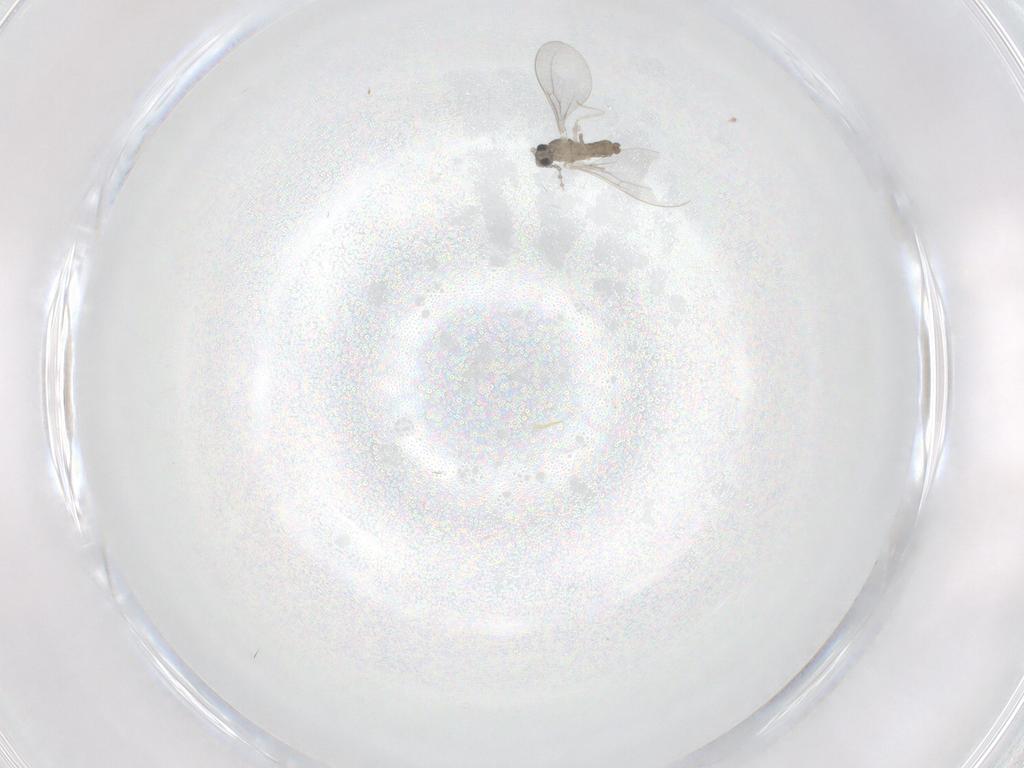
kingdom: Animalia
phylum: Arthropoda
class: Insecta
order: Diptera
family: Cecidomyiidae
